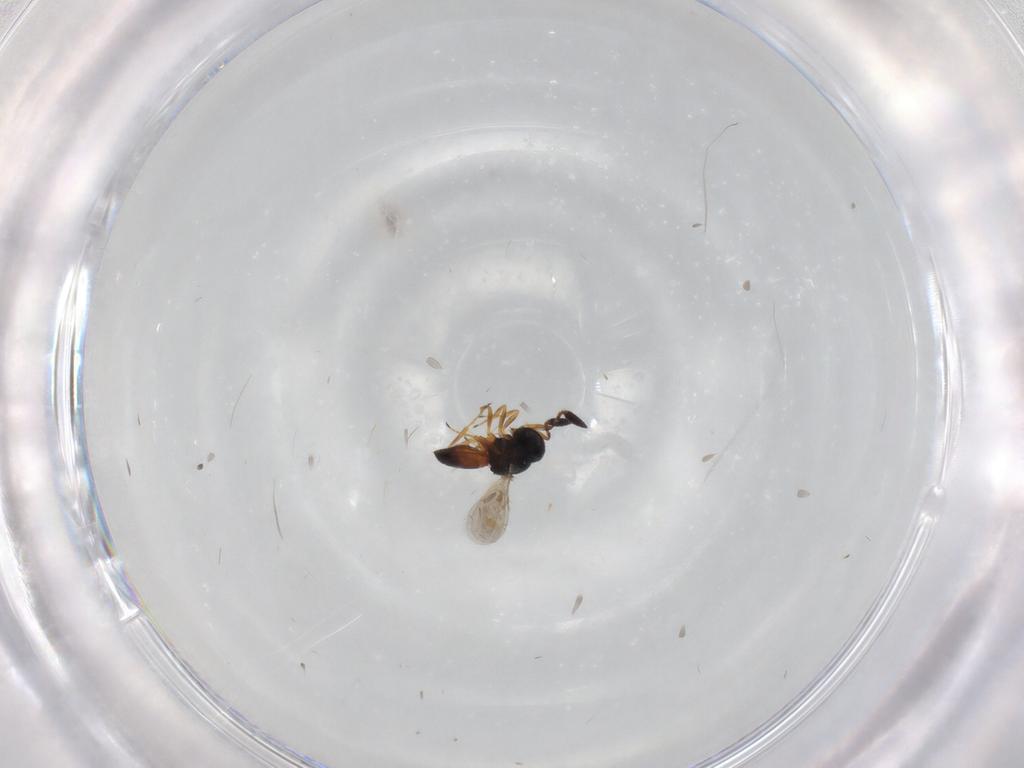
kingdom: Animalia
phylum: Arthropoda
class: Insecta
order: Hymenoptera
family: Scelionidae
